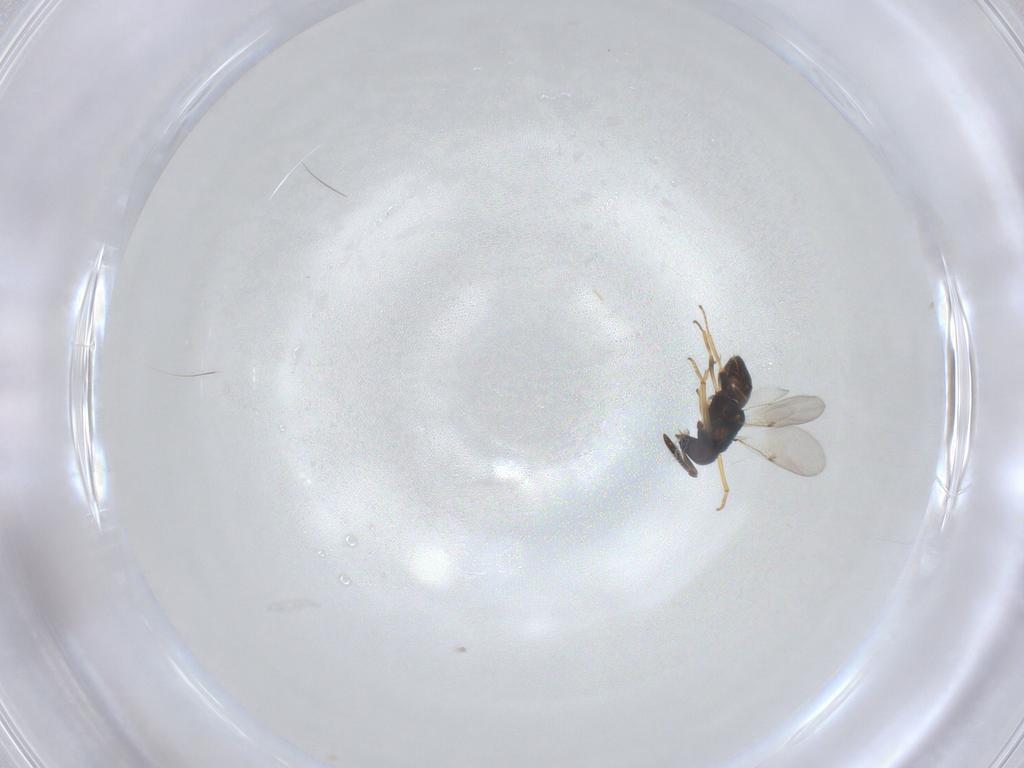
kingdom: Animalia
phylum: Arthropoda
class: Insecta
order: Hymenoptera
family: Encyrtidae
